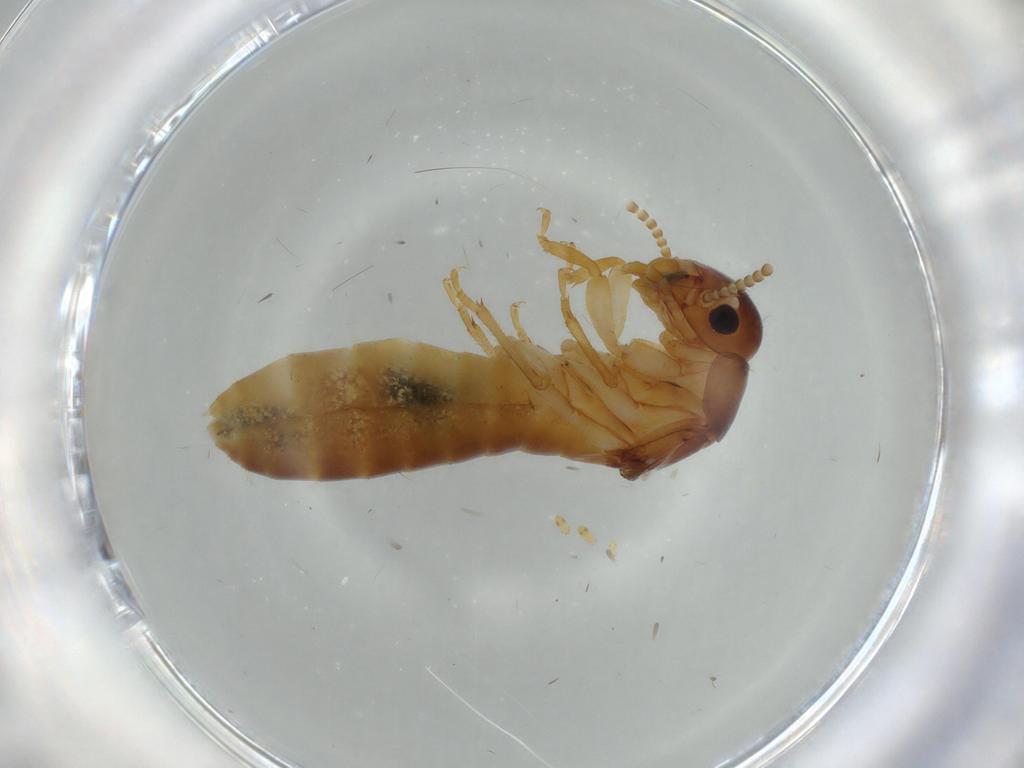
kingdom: Animalia
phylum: Arthropoda
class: Insecta
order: Blattodea
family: Kalotermitidae
